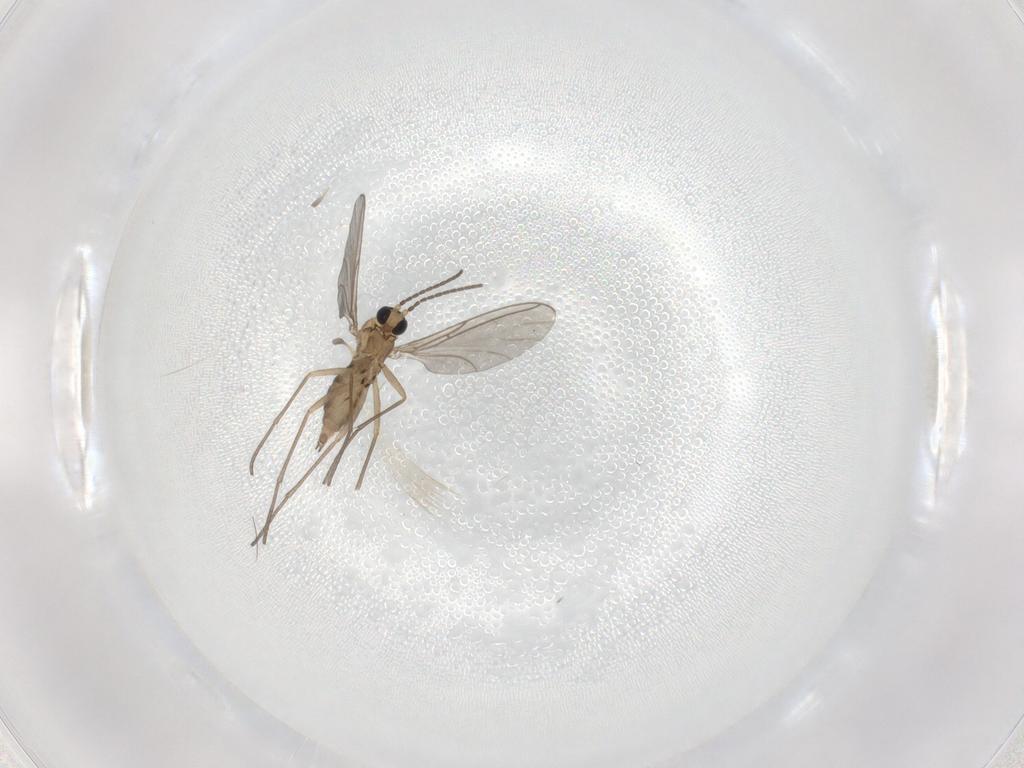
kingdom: Animalia
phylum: Arthropoda
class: Insecta
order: Diptera
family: Sciaridae
